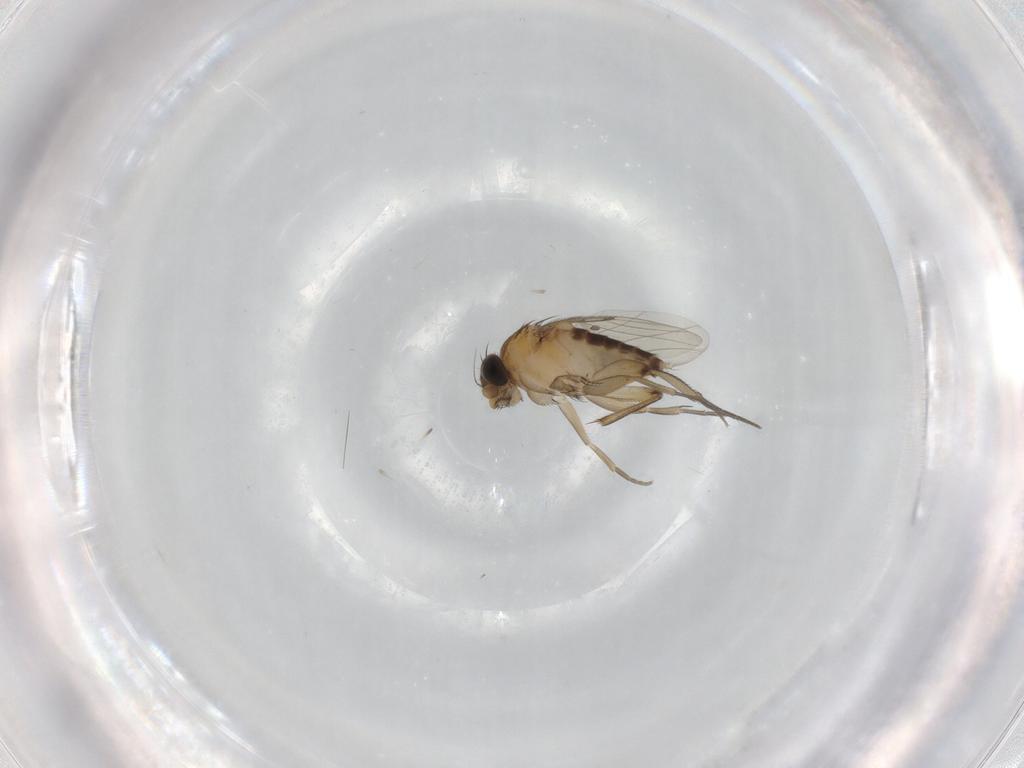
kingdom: Animalia
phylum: Arthropoda
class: Insecta
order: Diptera
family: Phoridae
